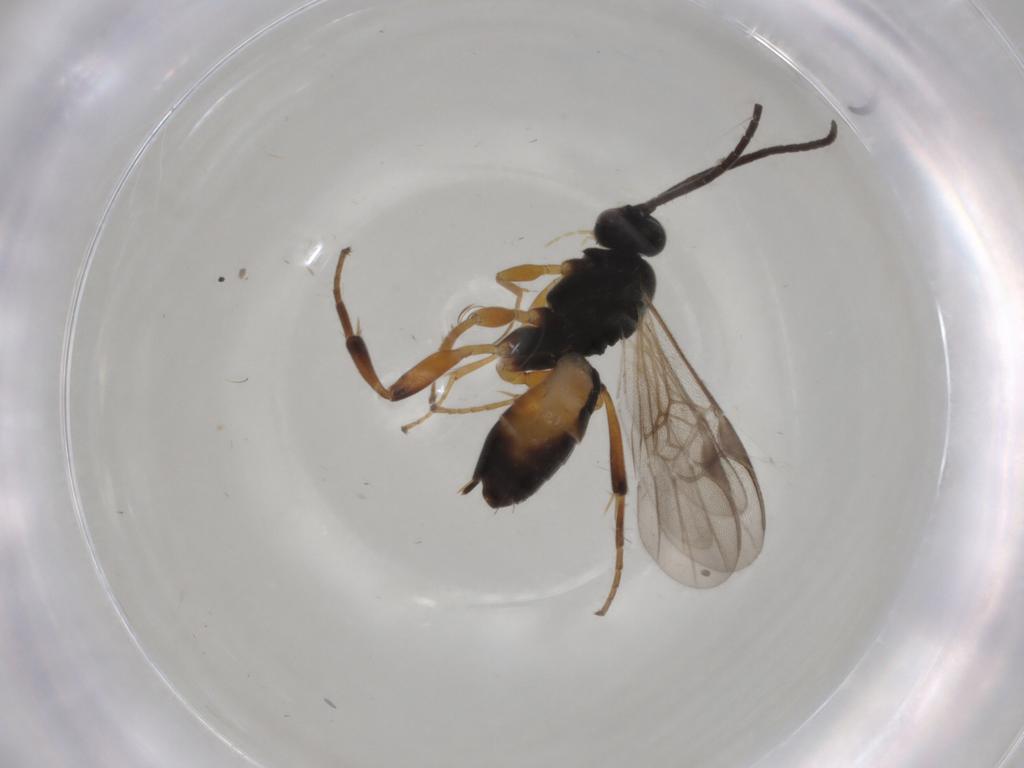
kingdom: Animalia
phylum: Arthropoda
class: Insecta
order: Hymenoptera
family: Braconidae
